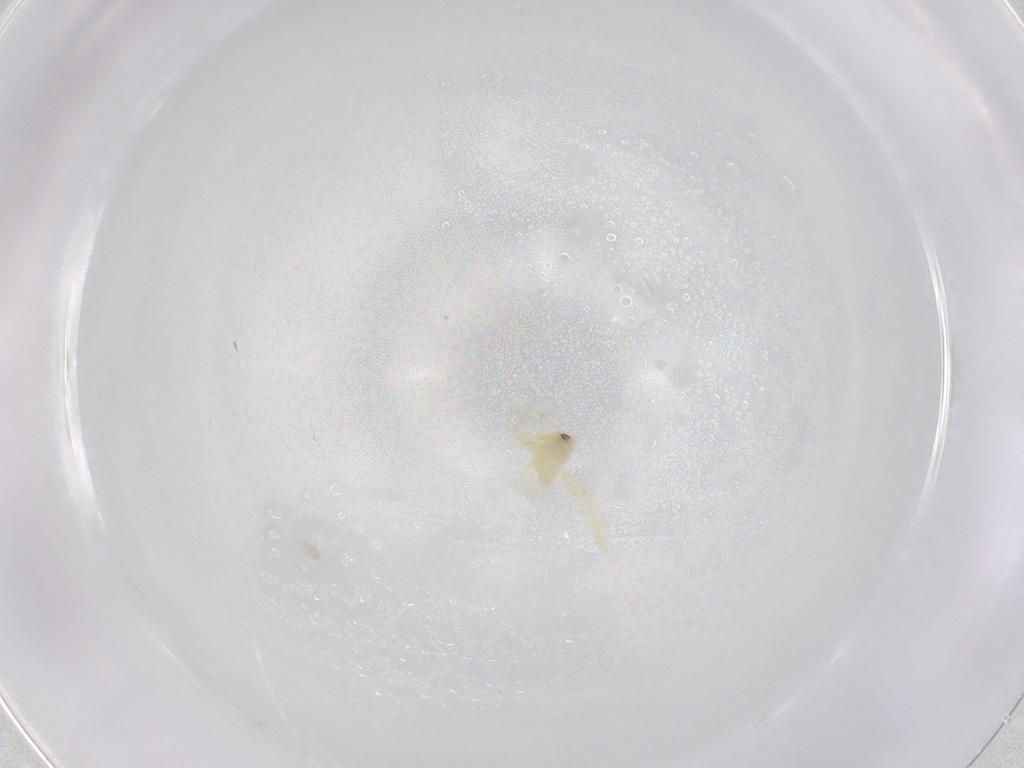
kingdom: Animalia
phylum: Arthropoda
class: Insecta
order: Hemiptera
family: Aleyrodidae
